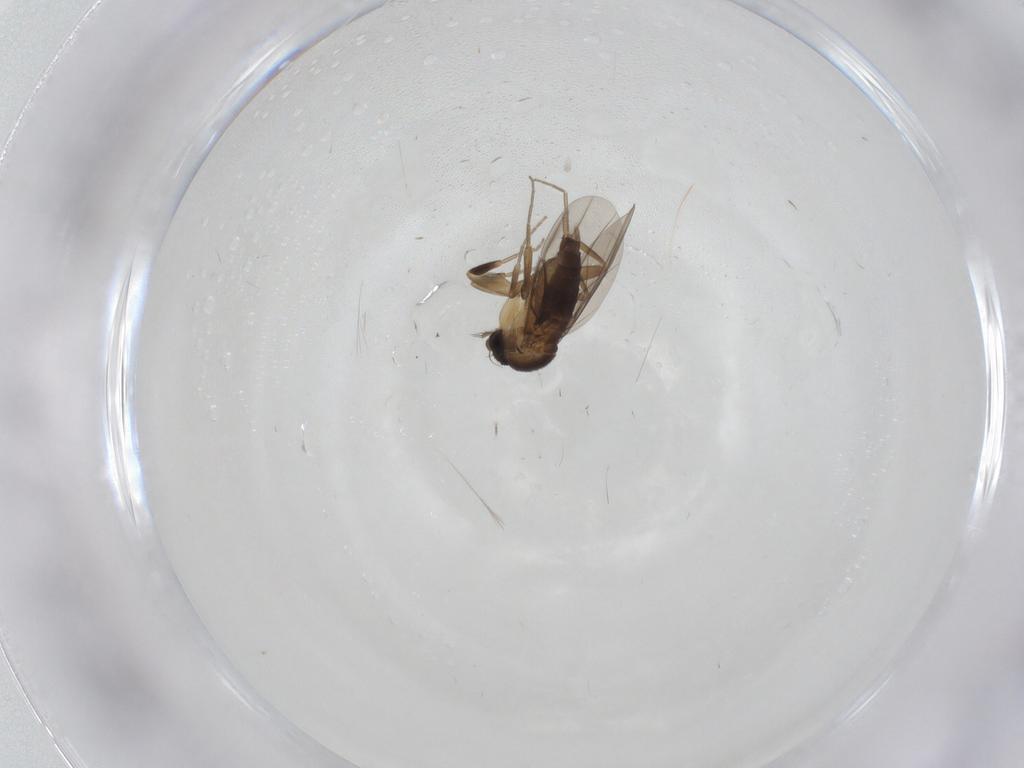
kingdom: Animalia
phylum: Arthropoda
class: Insecta
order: Diptera
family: Phoridae
